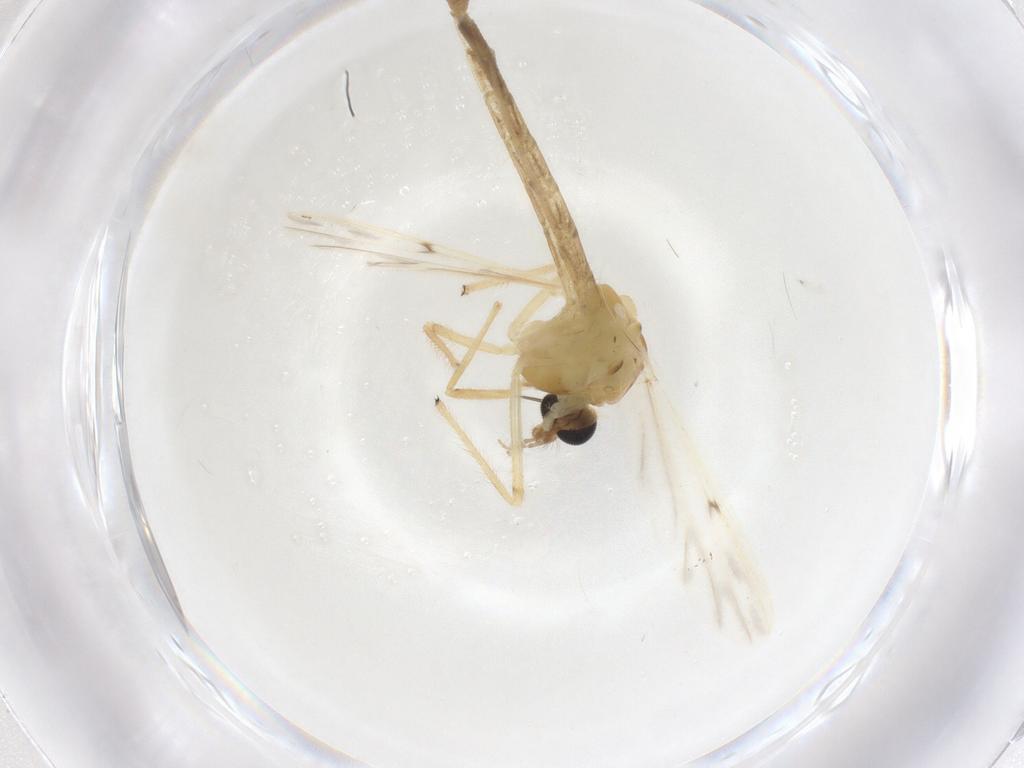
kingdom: Animalia
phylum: Arthropoda
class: Insecta
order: Diptera
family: Chironomidae
